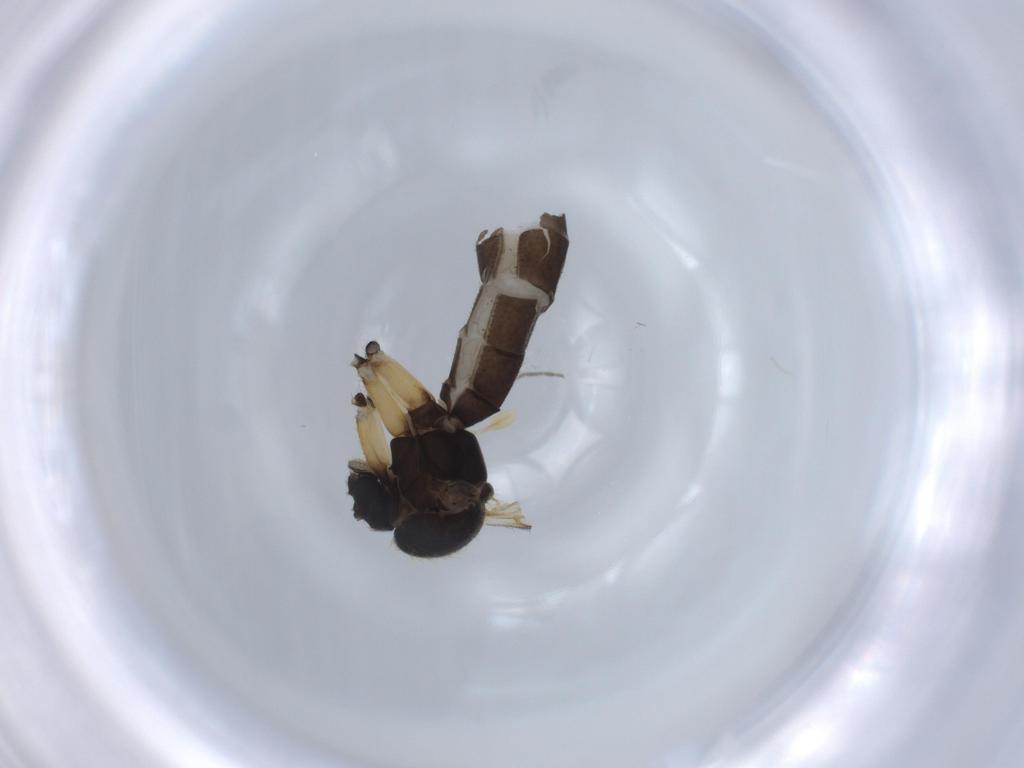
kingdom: Animalia
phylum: Arthropoda
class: Insecta
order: Diptera
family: Mycetophilidae
